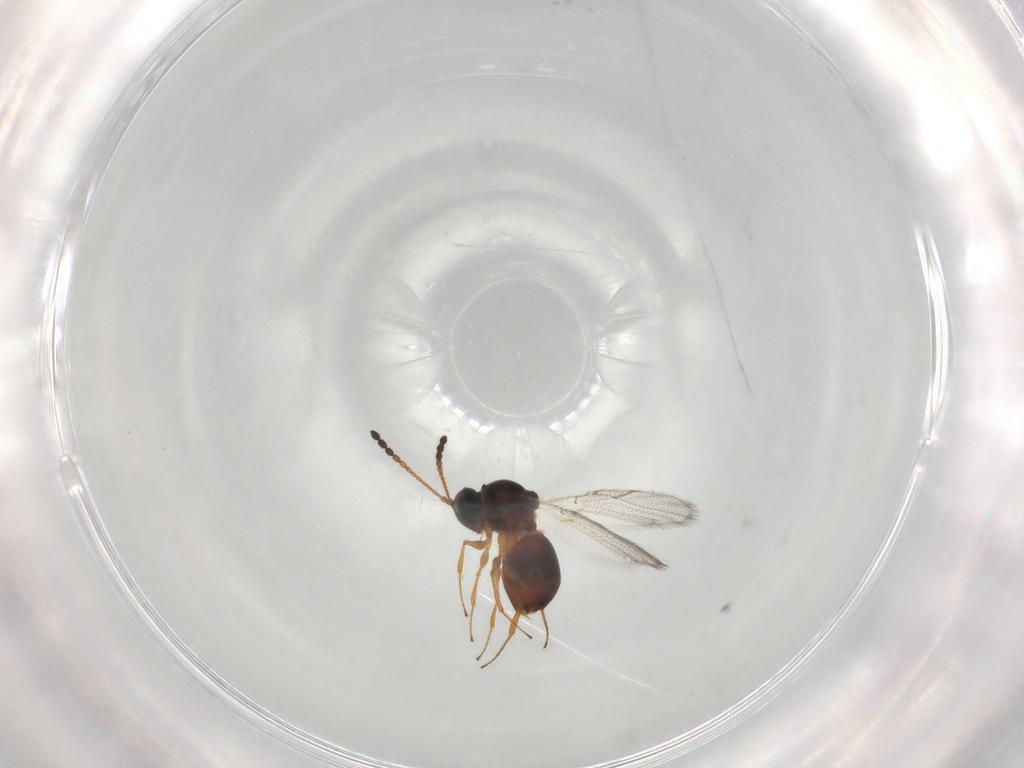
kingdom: Animalia
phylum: Arthropoda
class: Insecta
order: Hymenoptera
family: Figitidae
